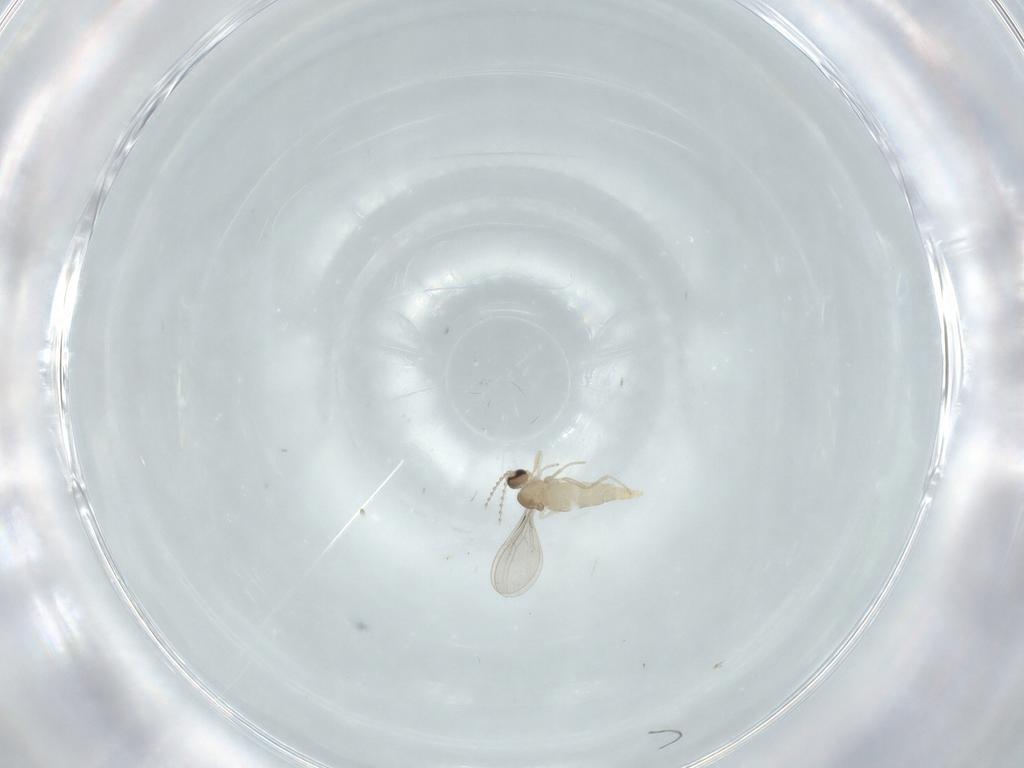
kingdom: Animalia
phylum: Arthropoda
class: Insecta
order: Diptera
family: Cecidomyiidae
